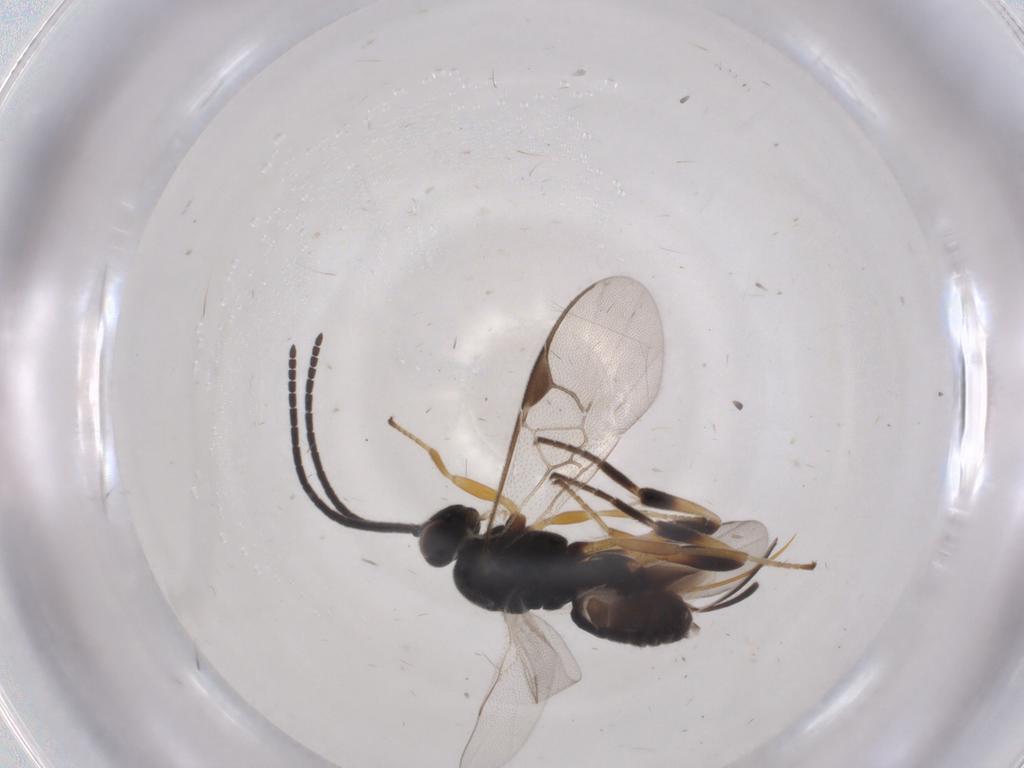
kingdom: Animalia
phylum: Arthropoda
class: Insecta
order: Hymenoptera
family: Braconidae
